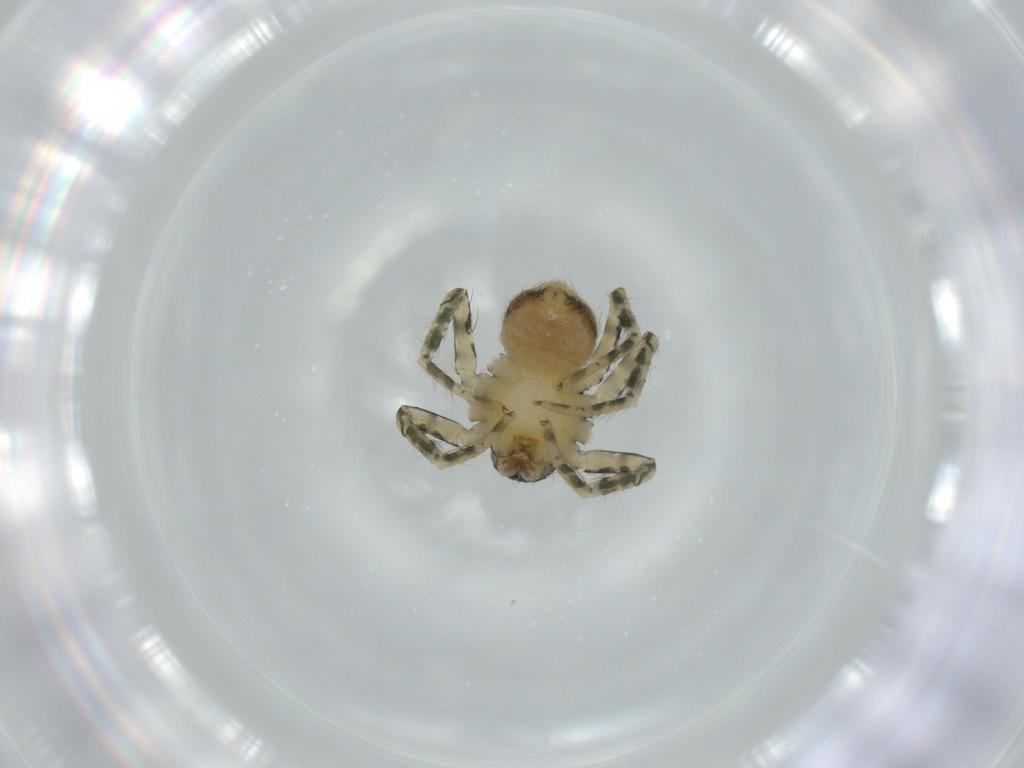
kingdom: Animalia
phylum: Arthropoda
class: Arachnida
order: Araneae
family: Selenopidae
